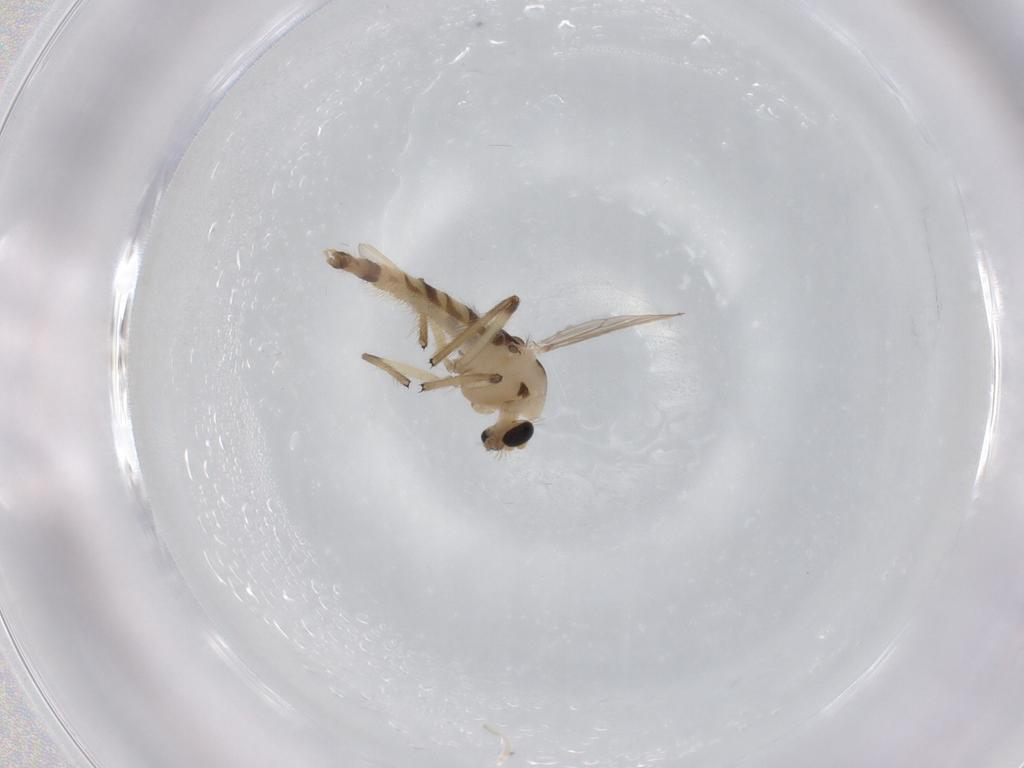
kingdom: Animalia
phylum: Arthropoda
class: Insecta
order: Diptera
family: Chironomidae
